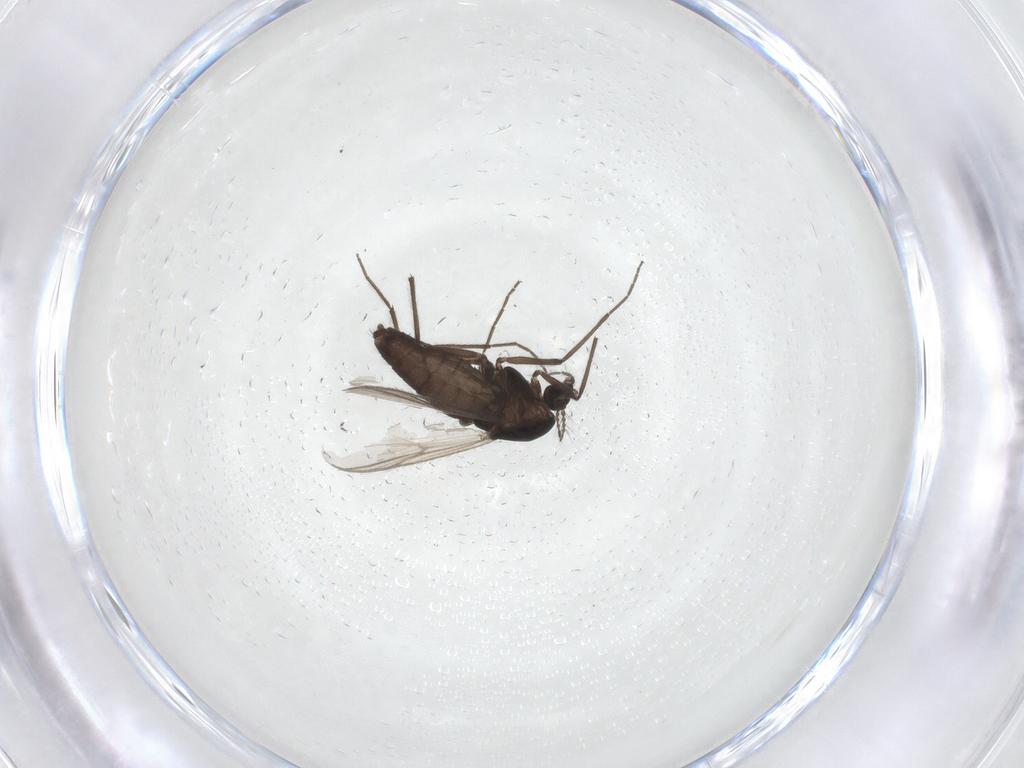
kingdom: Animalia
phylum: Arthropoda
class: Insecta
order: Diptera
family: Chironomidae
